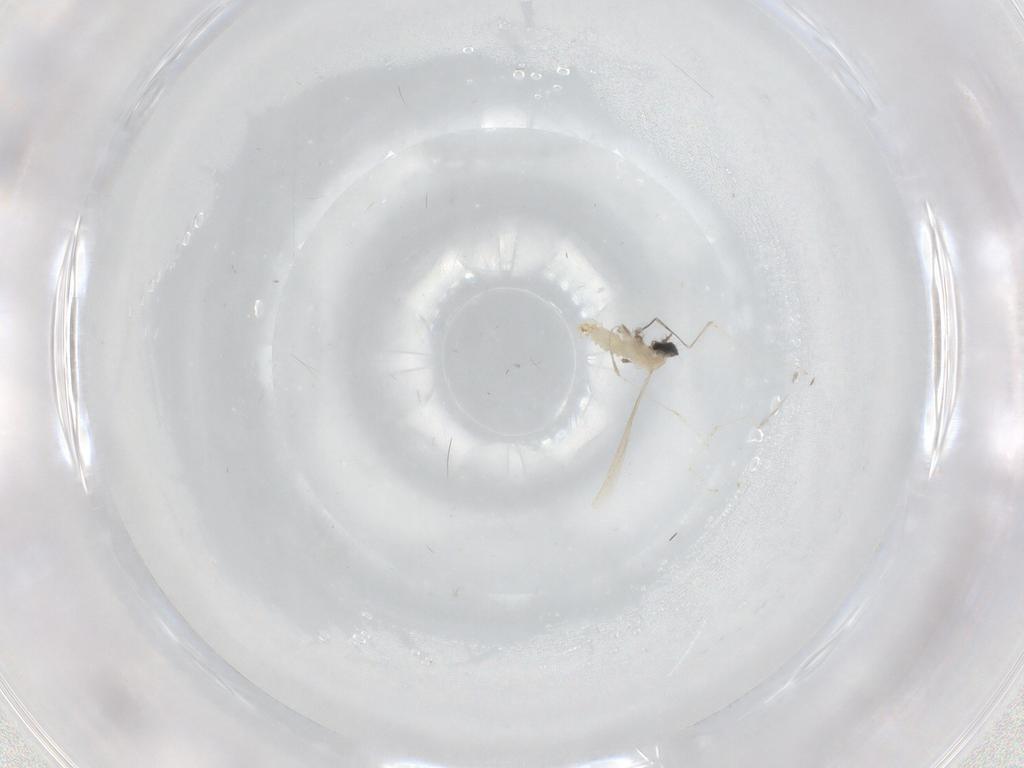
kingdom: Animalia
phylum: Arthropoda
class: Insecta
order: Diptera
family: Cecidomyiidae
